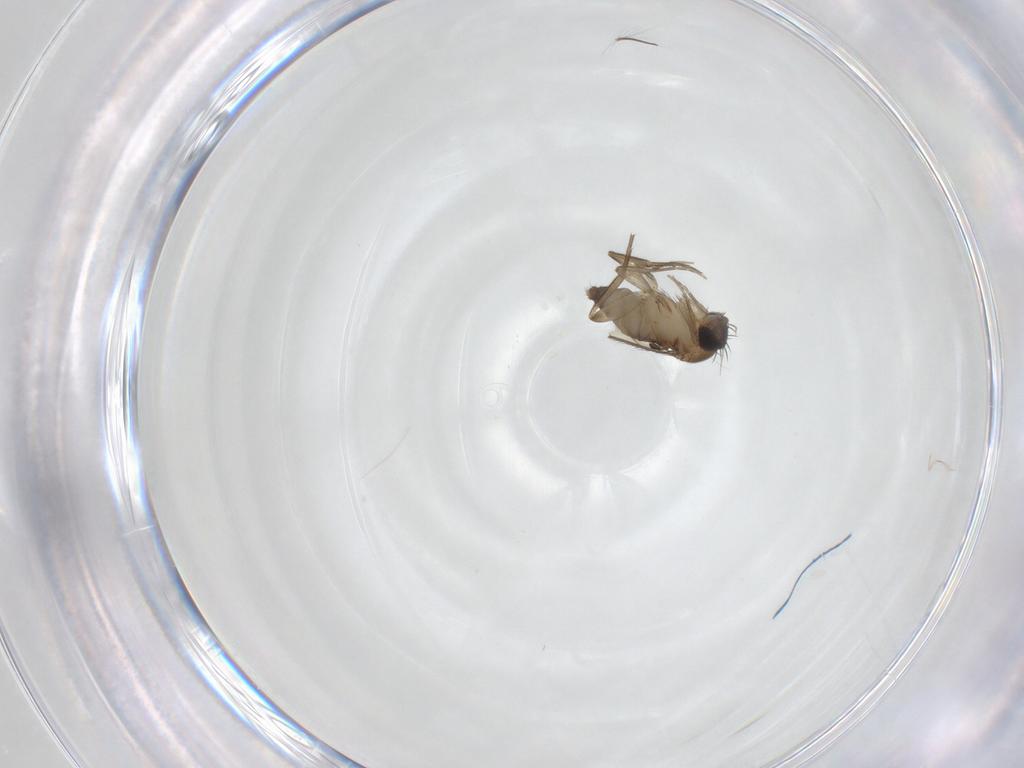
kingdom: Animalia
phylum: Arthropoda
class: Insecta
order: Diptera
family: Phoridae
